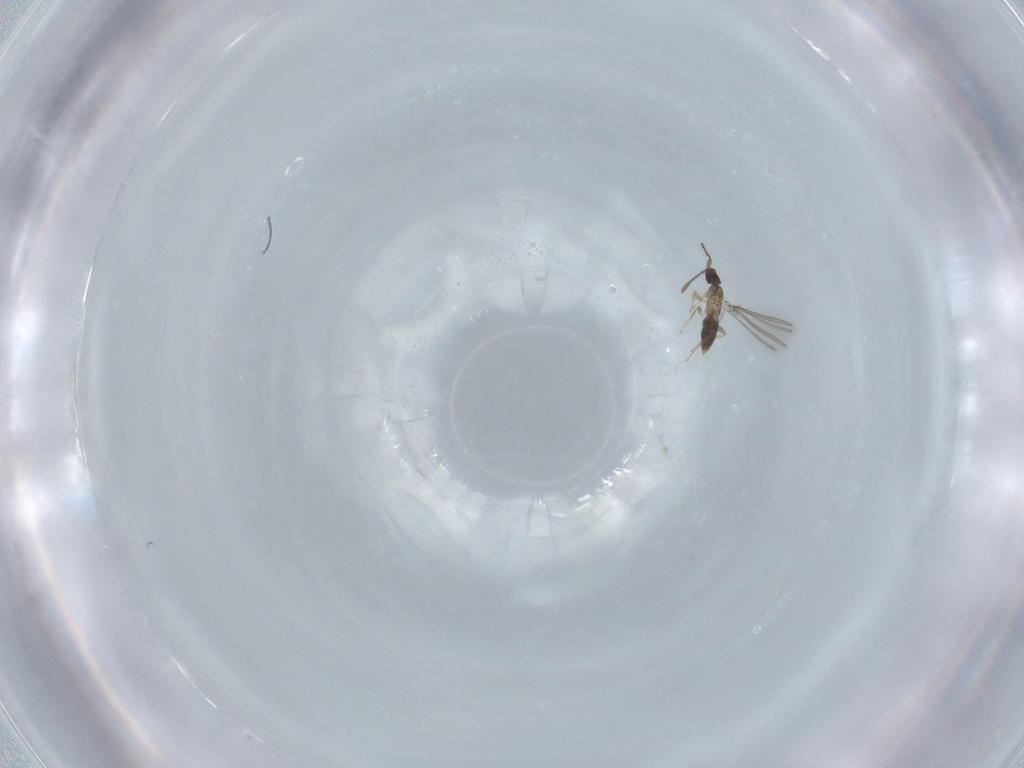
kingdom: Animalia
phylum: Arthropoda
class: Insecta
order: Hymenoptera
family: Mymaridae
